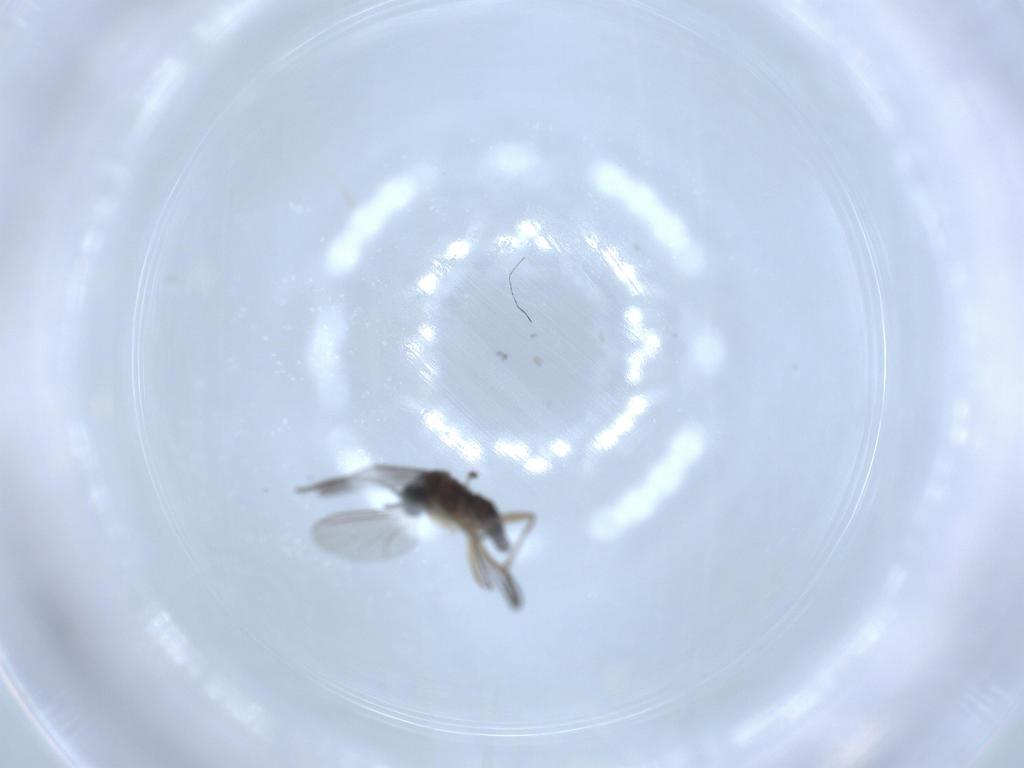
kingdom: Animalia
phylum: Arthropoda
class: Insecta
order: Diptera
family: Sciaridae
